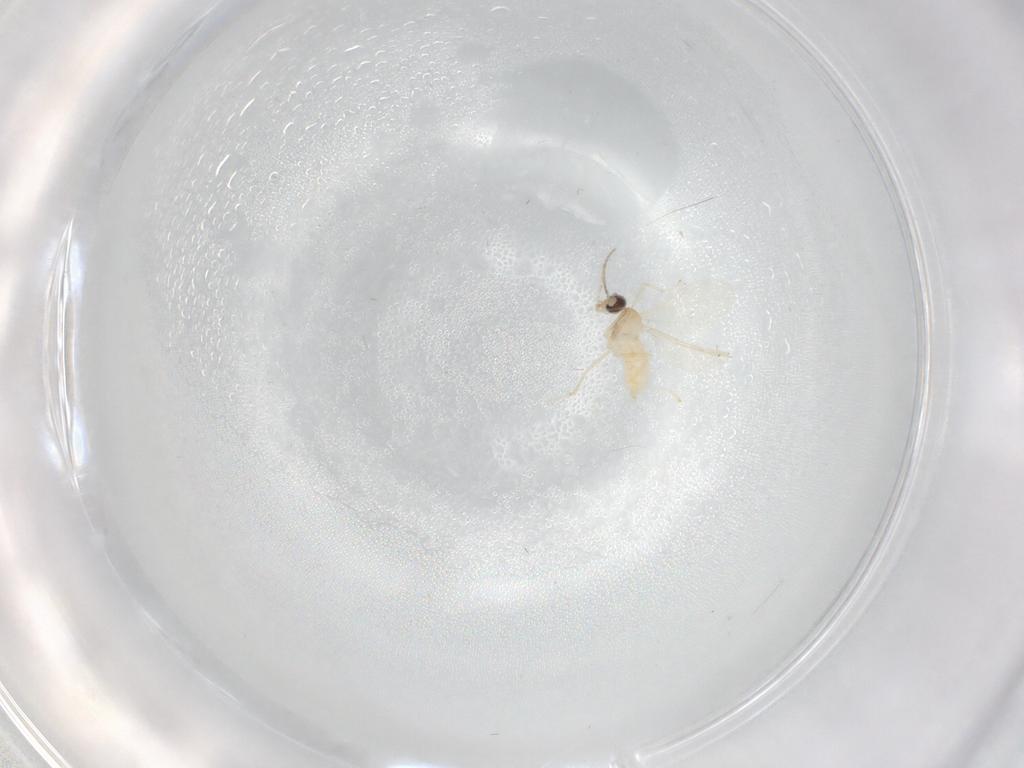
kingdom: Animalia
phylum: Arthropoda
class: Insecta
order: Diptera
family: Cecidomyiidae
